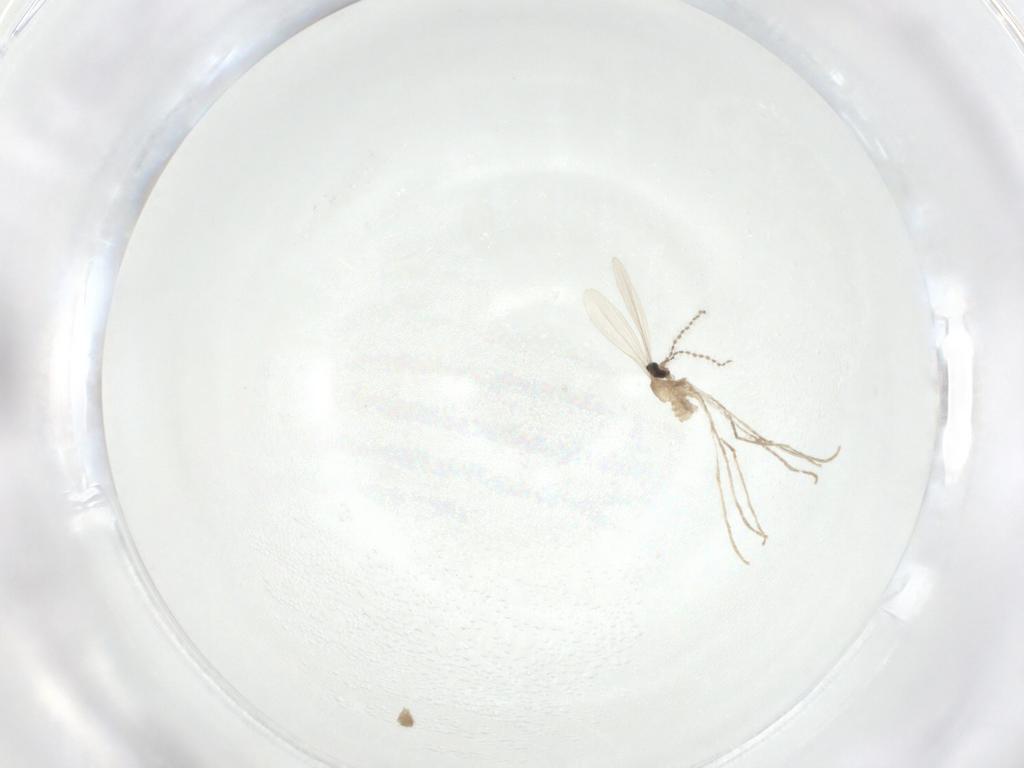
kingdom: Animalia
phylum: Arthropoda
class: Insecta
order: Diptera
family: Cecidomyiidae
